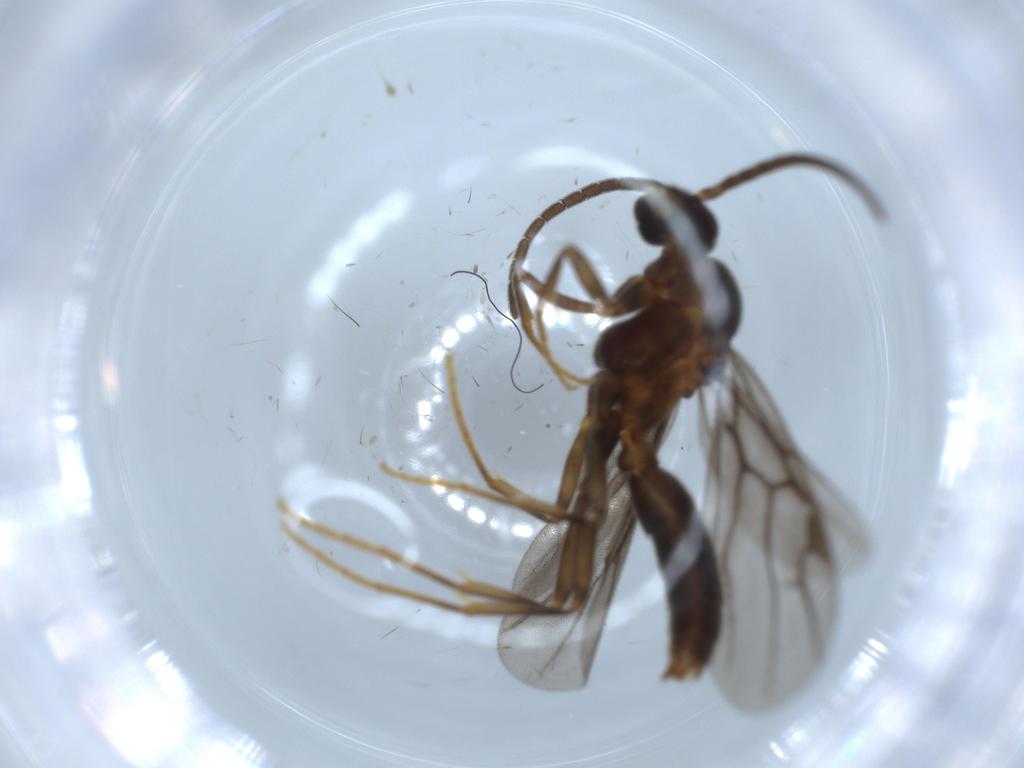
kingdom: Animalia
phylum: Arthropoda
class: Insecta
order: Hymenoptera
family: Formicidae
